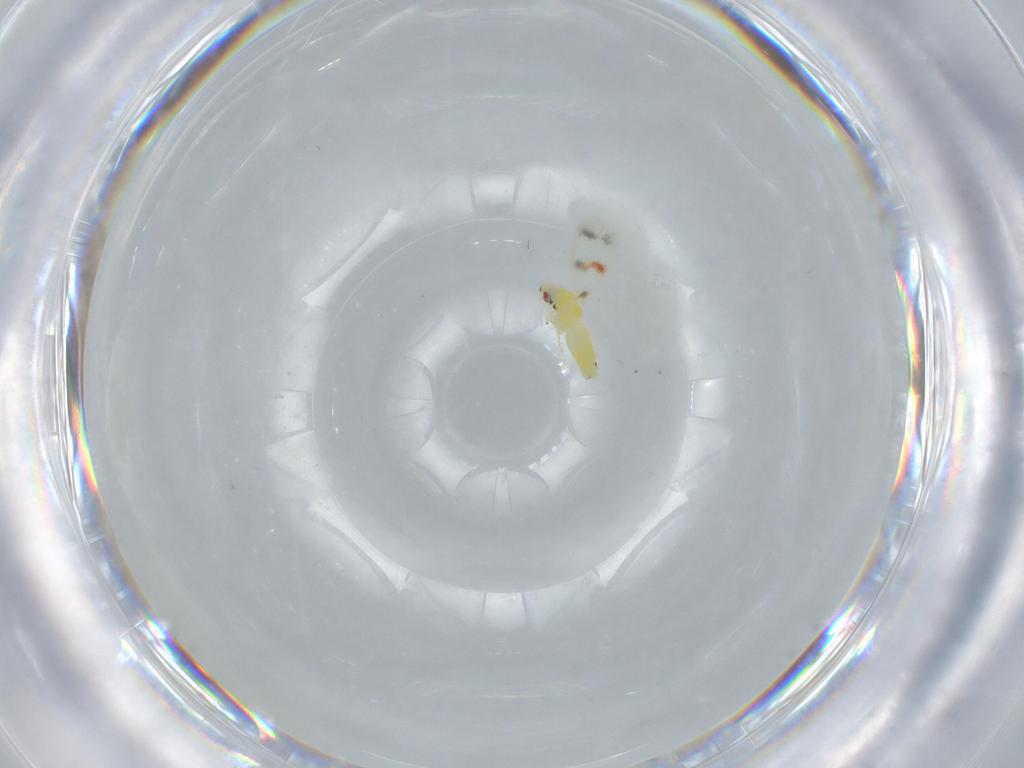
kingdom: Animalia
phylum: Arthropoda
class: Insecta
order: Hemiptera
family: Aleyrodidae
